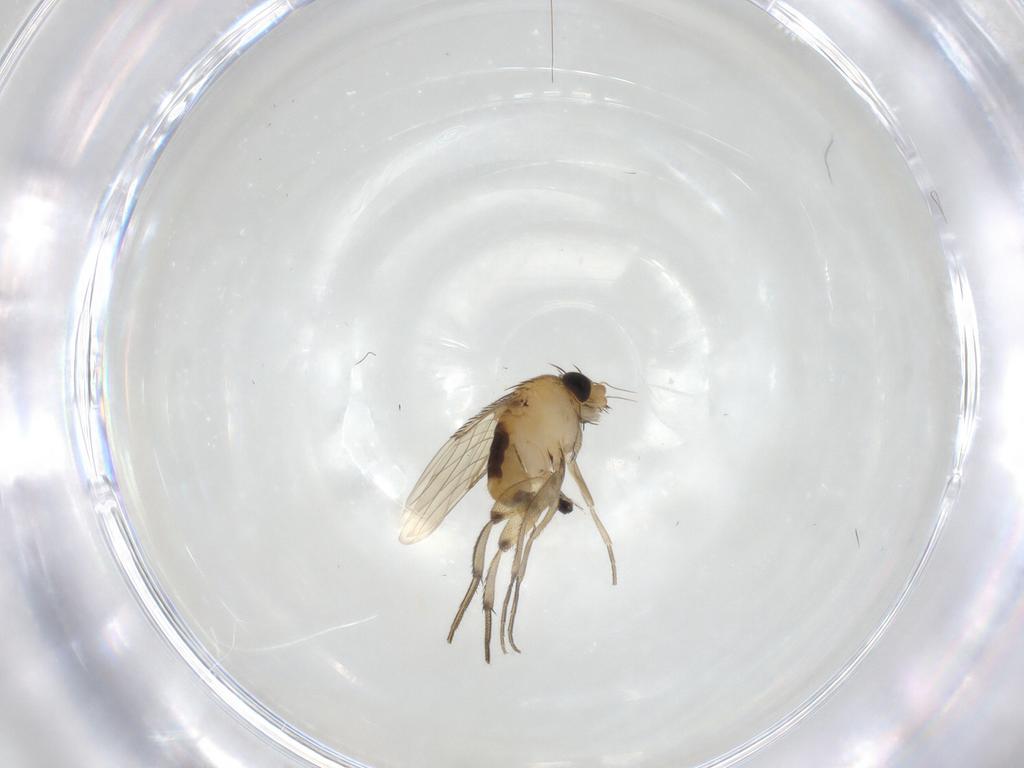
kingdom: Animalia
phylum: Arthropoda
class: Insecta
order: Diptera
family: Phoridae
